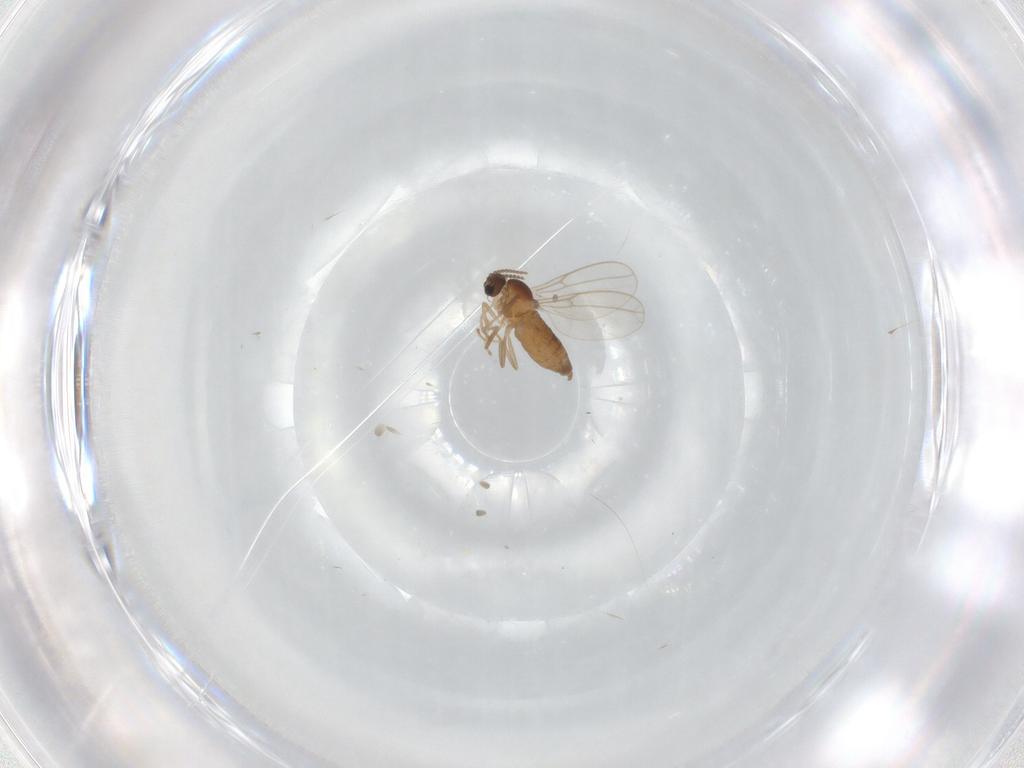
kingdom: Animalia
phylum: Arthropoda
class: Insecta
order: Diptera
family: Cecidomyiidae
